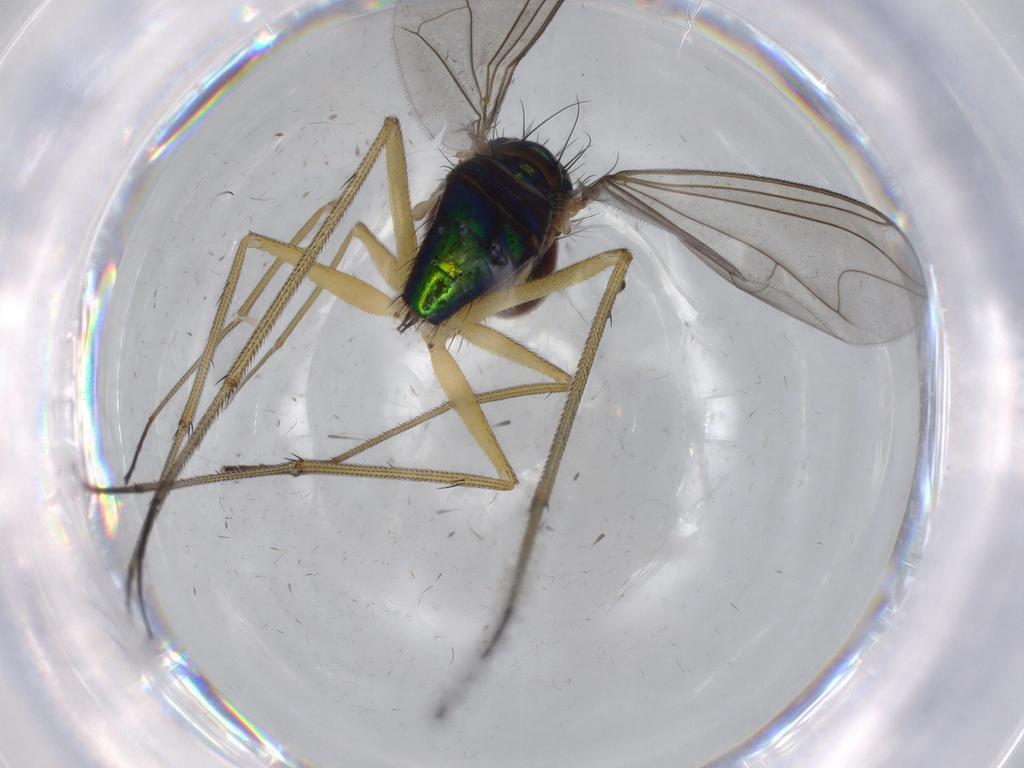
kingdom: Animalia
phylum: Arthropoda
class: Insecta
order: Diptera
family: Dolichopodidae
